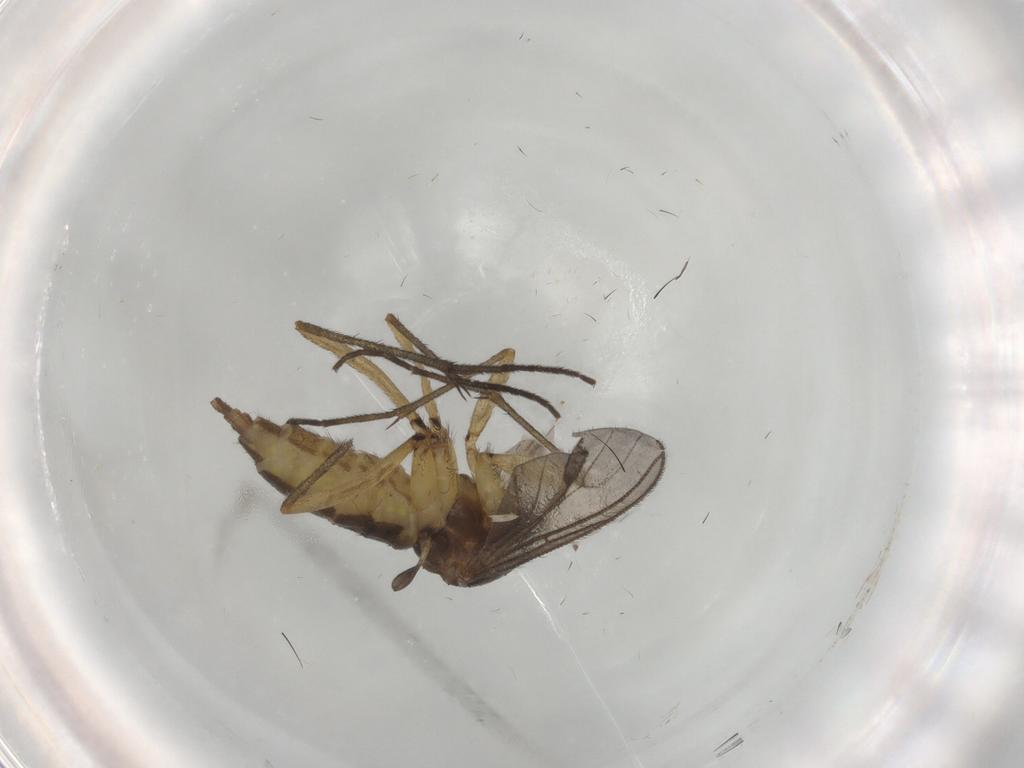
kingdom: Animalia
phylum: Arthropoda
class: Insecta
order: Diptera
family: Sciaridae
